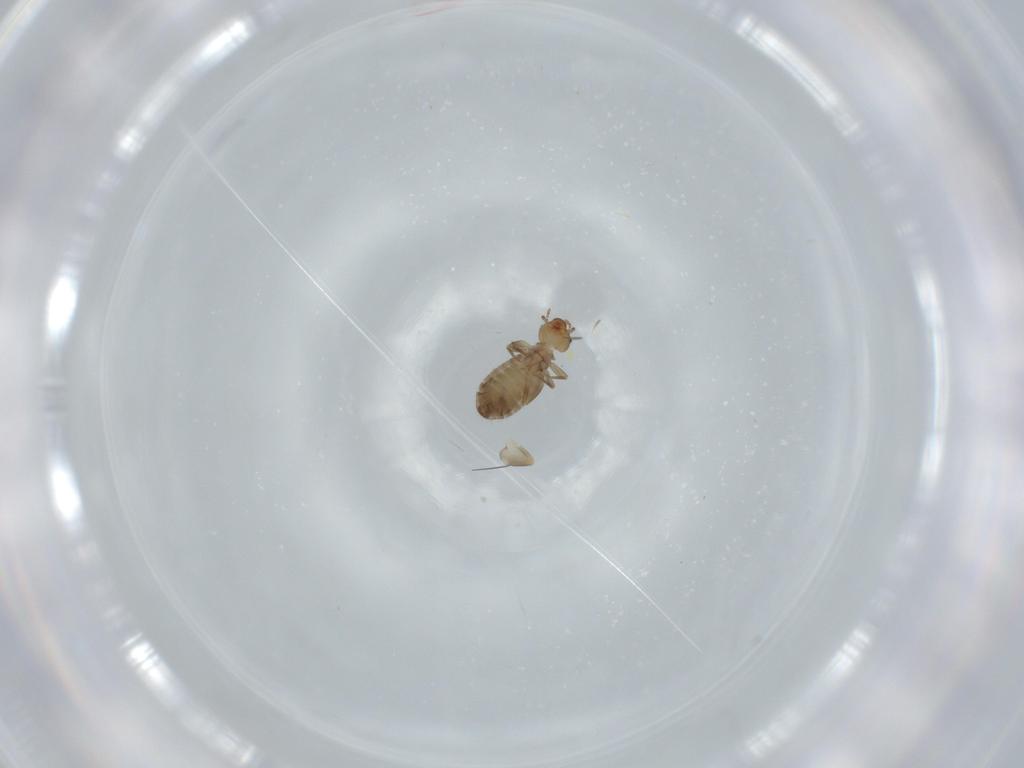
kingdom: Animalia
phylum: Arthropoda
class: Insecta
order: Psocodea
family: Liposcelididae
